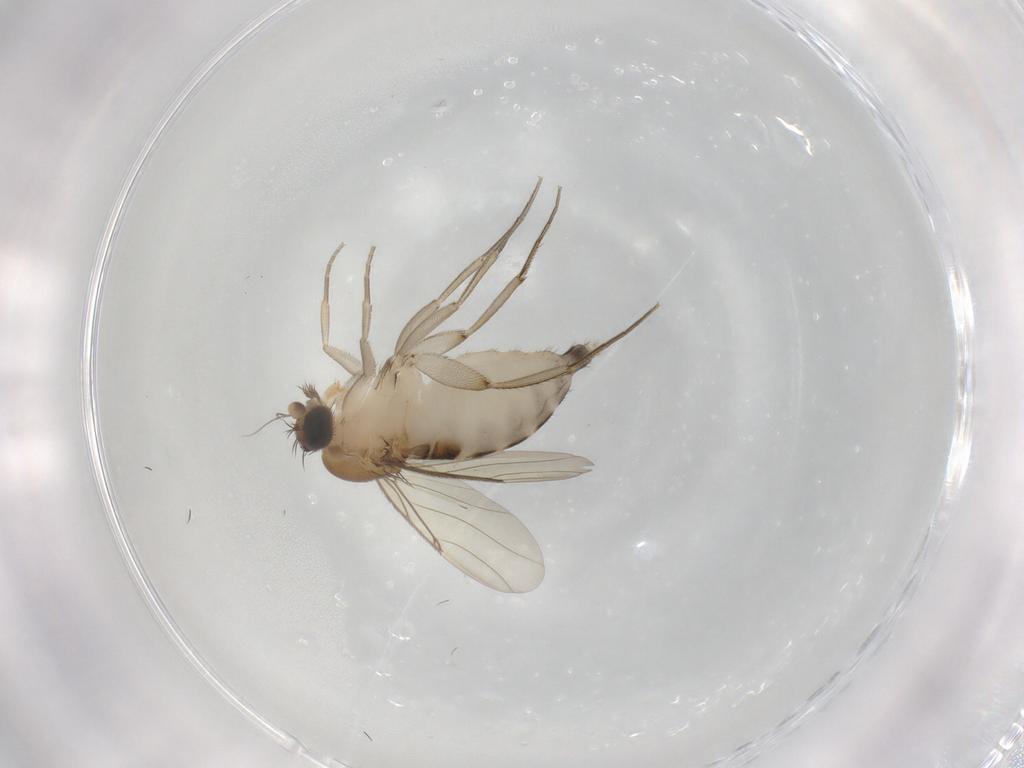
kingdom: Animalia
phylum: Arthropoda
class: Insecta
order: Diptera
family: Phoridae
